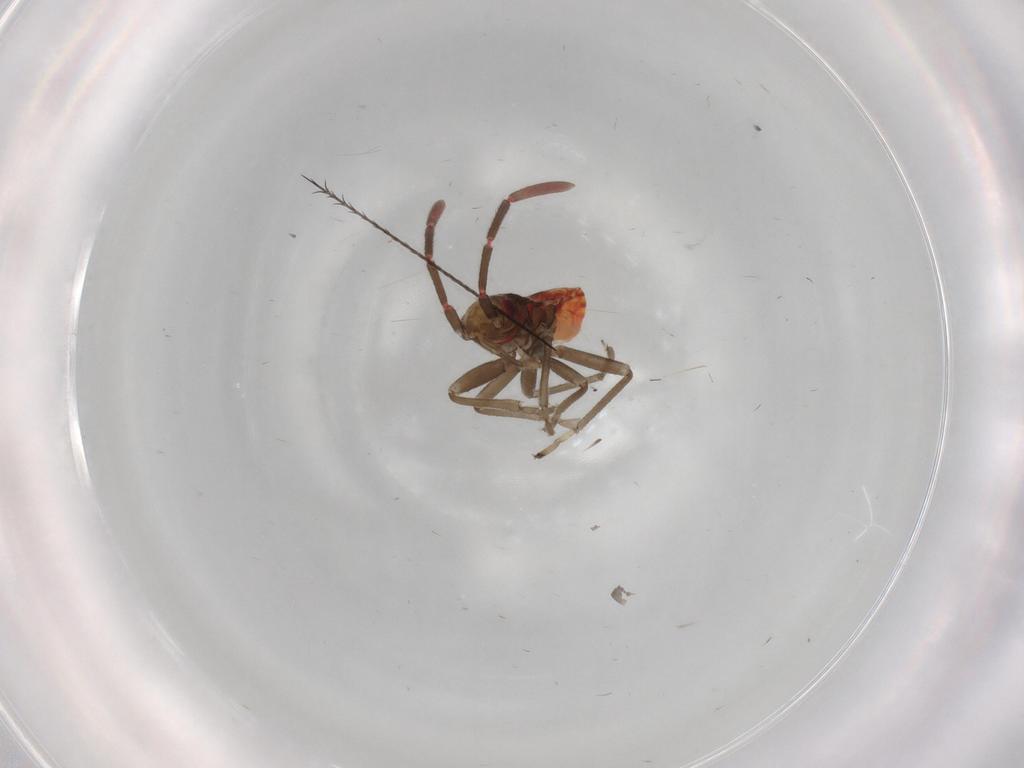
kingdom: Animalia
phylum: Arthropoda
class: Insecta
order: Hemiptera
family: Rhyparochromidae
